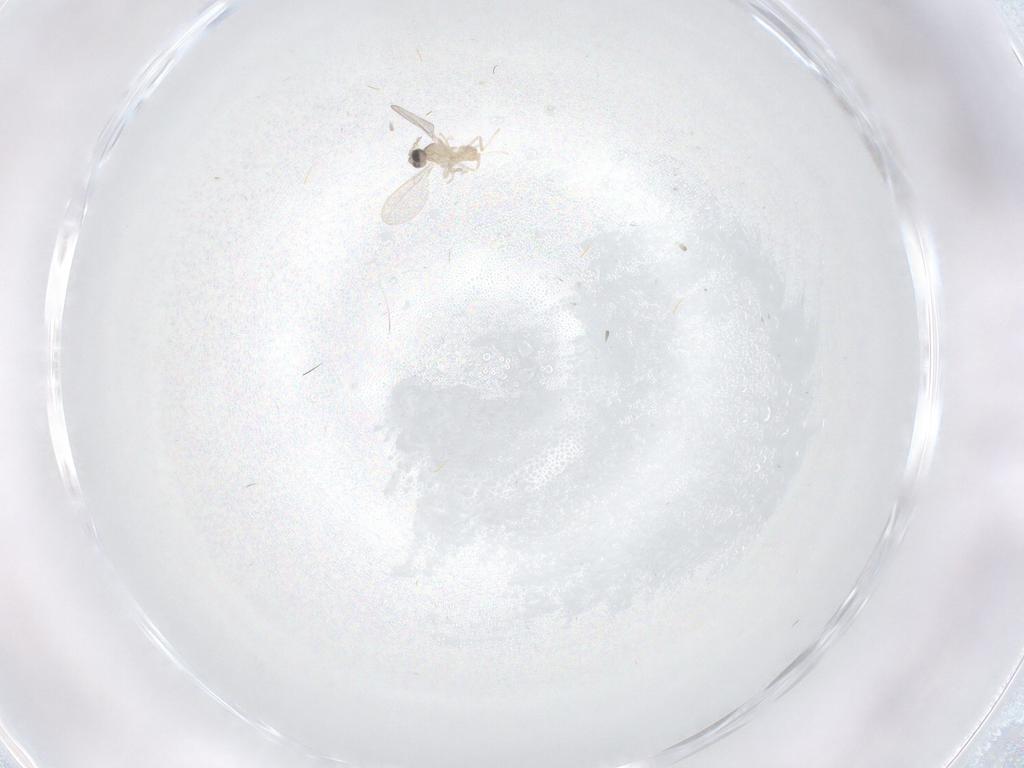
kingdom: Animalia
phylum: Arthropoda
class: Insecta
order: Diptera
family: Cecidomyiidae
